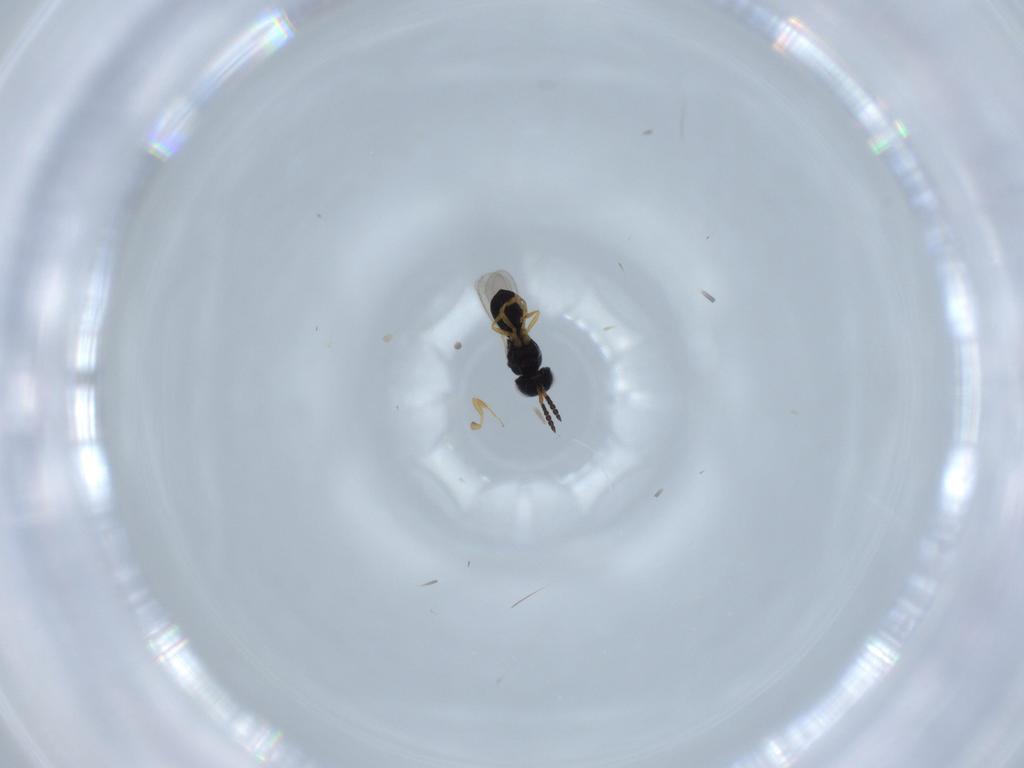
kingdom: Animalia
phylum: Arthropoda
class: Insecta
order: Hymenoptera
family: Scelionidae
